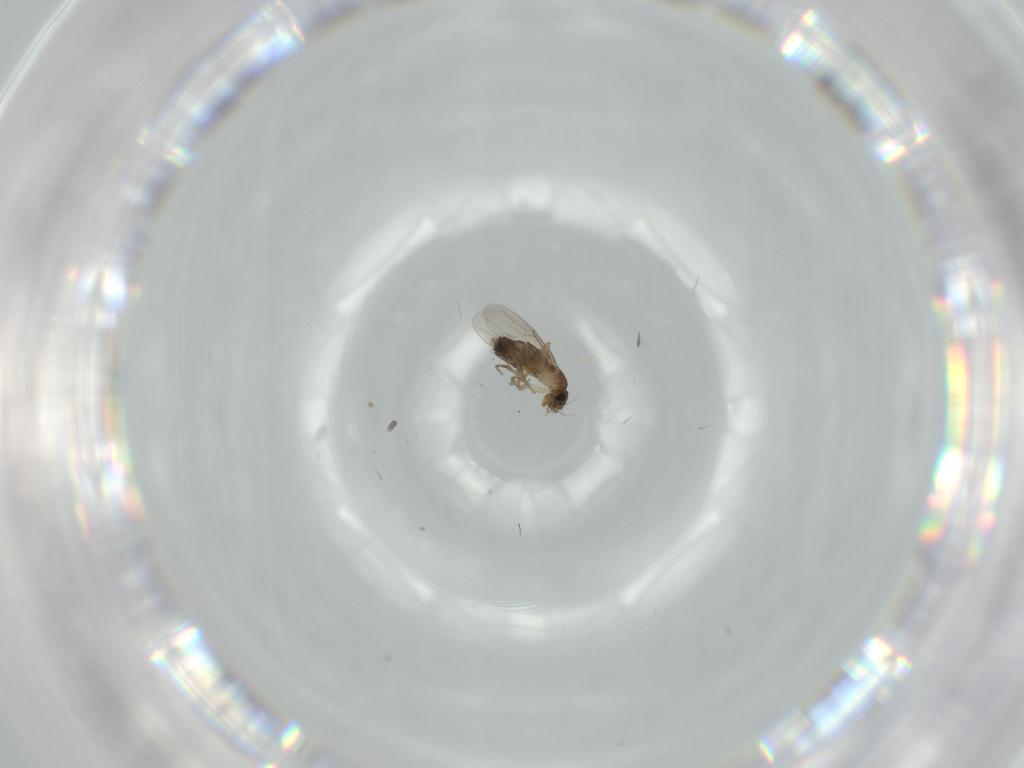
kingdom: Animalia
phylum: Arthropoda
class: Insecta
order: Diptera
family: Phoridae
